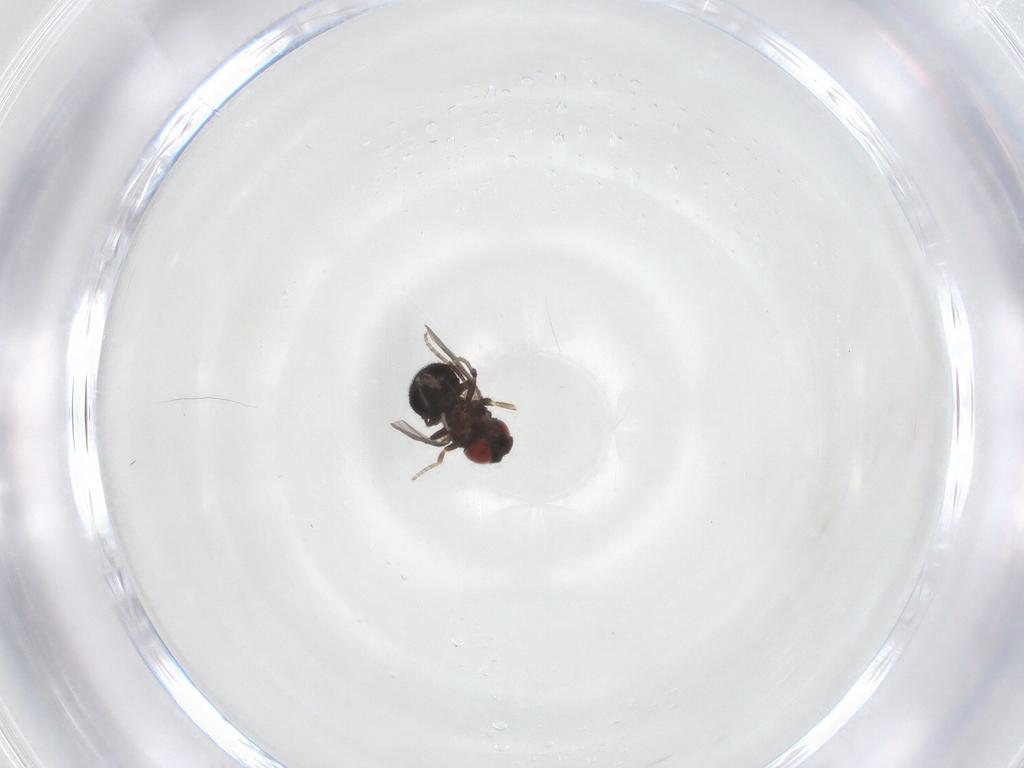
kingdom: Animalia
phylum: Arthropoda
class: Insecta
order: Diptera
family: Cryptochetidae
